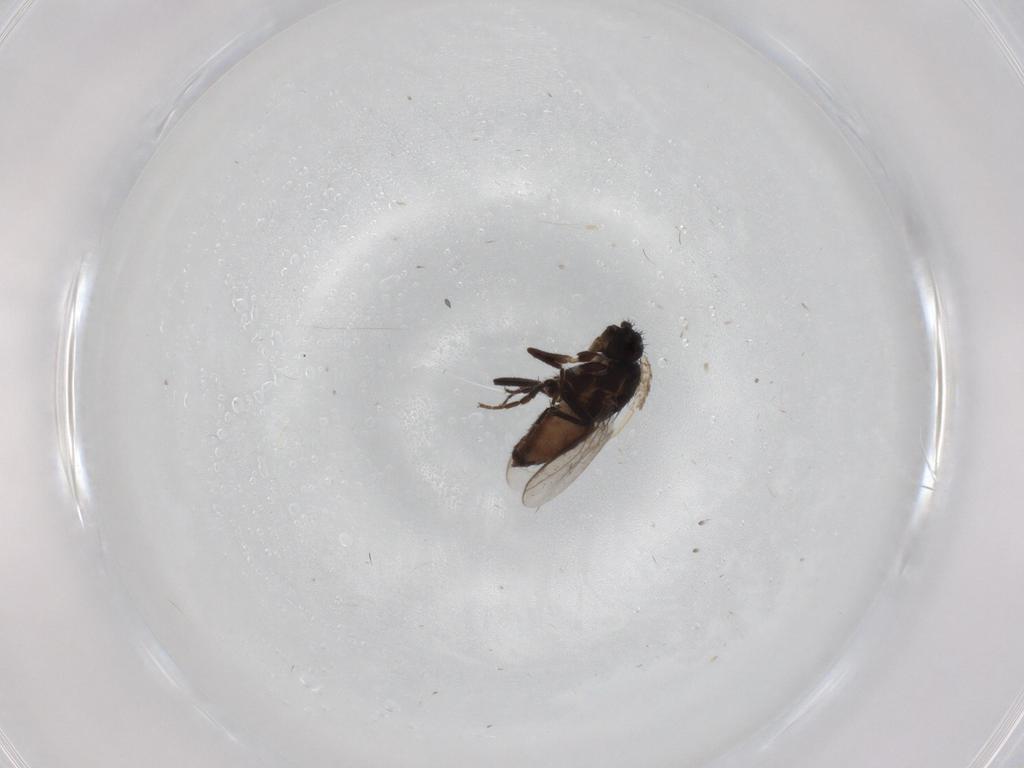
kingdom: Animalia
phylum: Arthropoda
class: Insecta
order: Diptera
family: Sphaeroceridae
